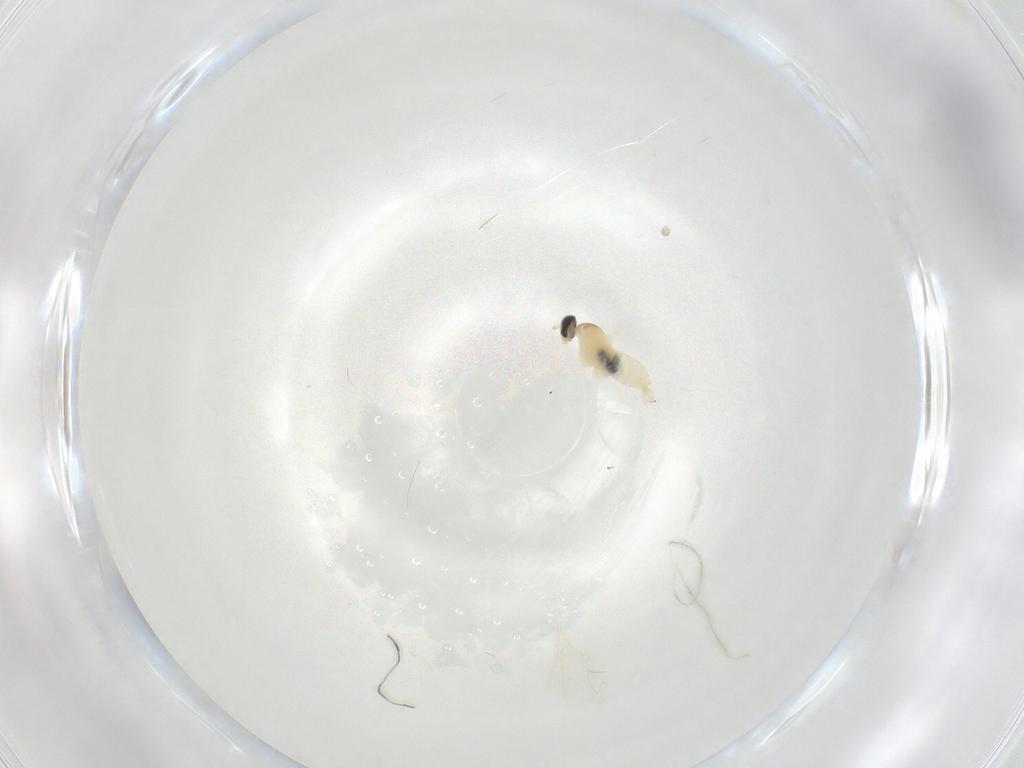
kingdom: Animalia
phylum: Arthropoda
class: Insecta
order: Diptera
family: Cecidomyiidae
